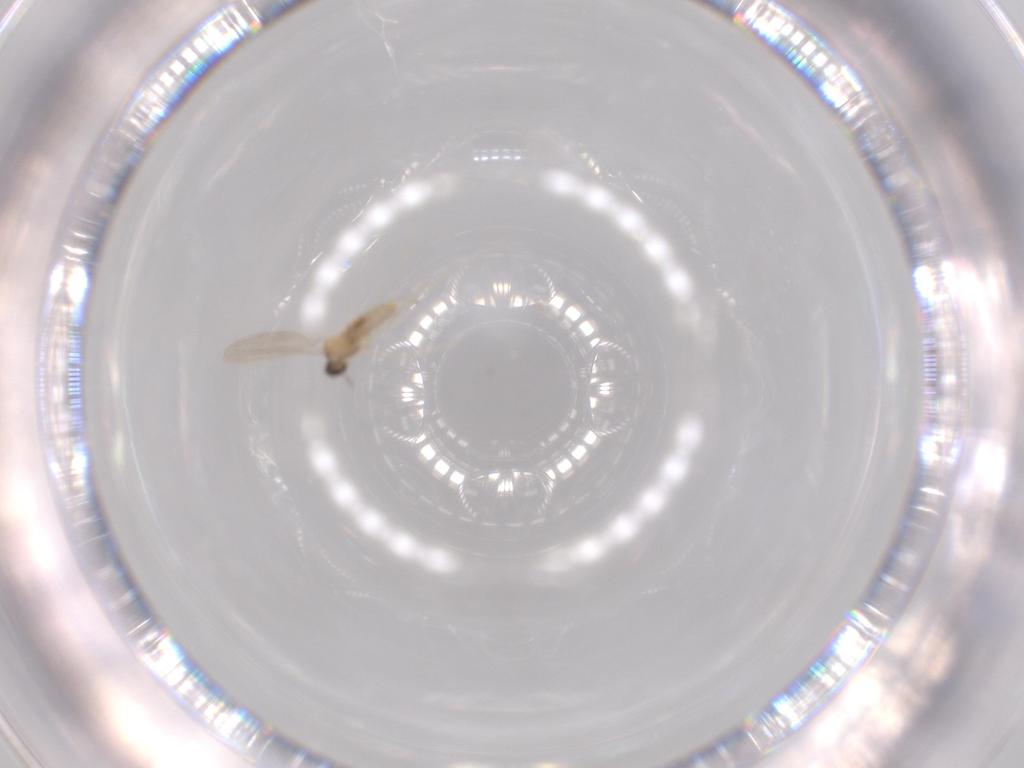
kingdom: Animalia
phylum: Arthropoda
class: Insecta
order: Diptera
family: Cecidomyiidae
